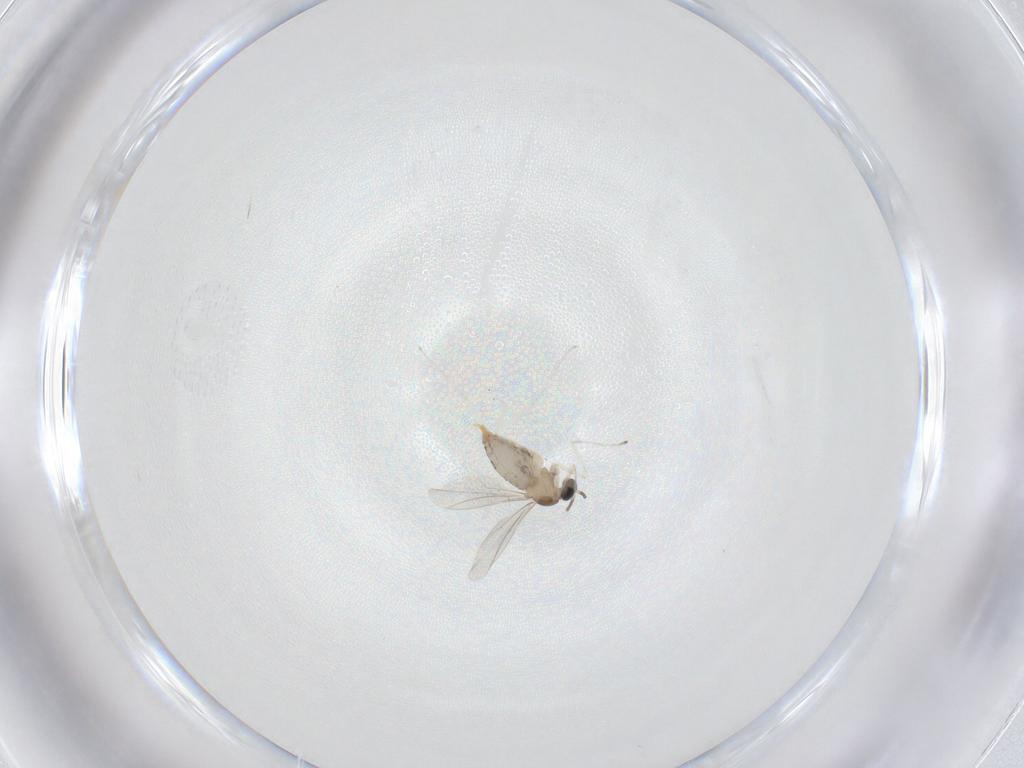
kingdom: Animalia
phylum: Arthropoda
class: Insecta
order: Diptera
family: Cecidomyiidae
